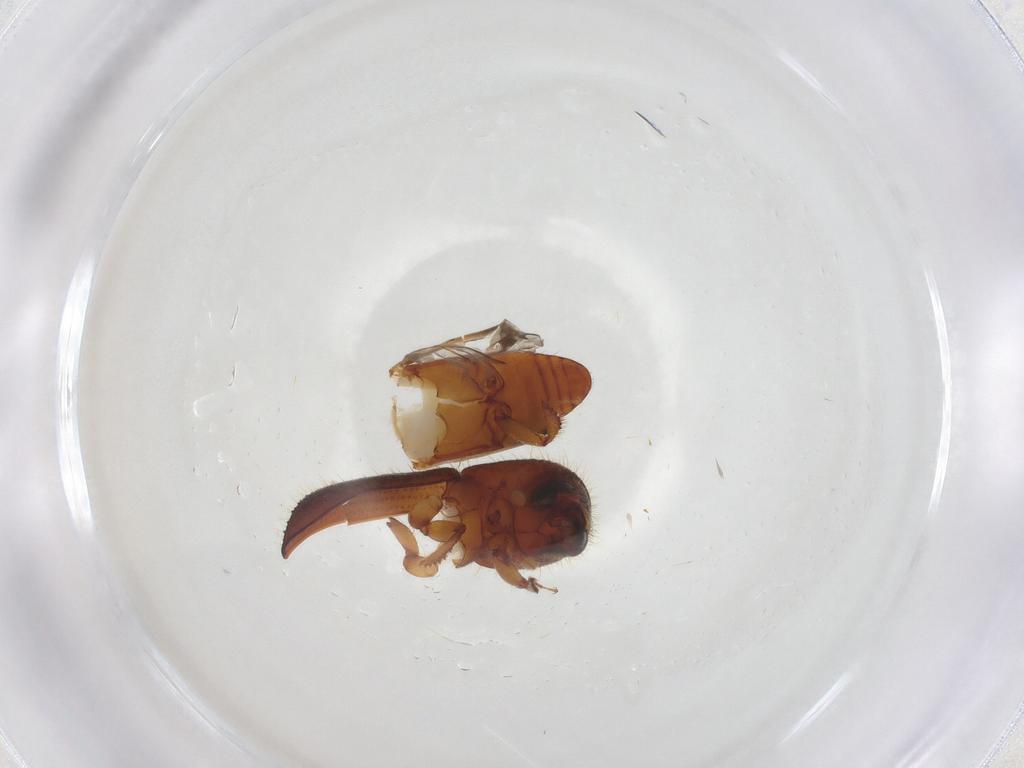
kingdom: Animalia
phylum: Arthropoda
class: Insecta
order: Coleoptera
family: Curculionidae
